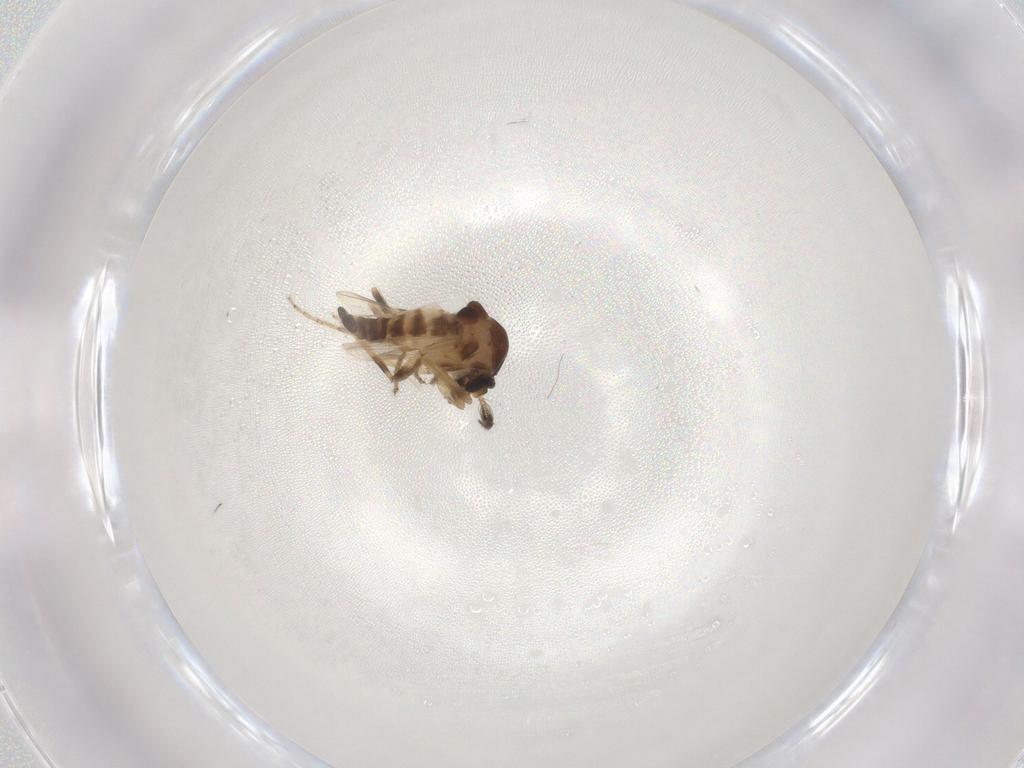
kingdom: Animalia
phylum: Arthropoda
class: Insecta
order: Diptera
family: Ceratopogonidae
